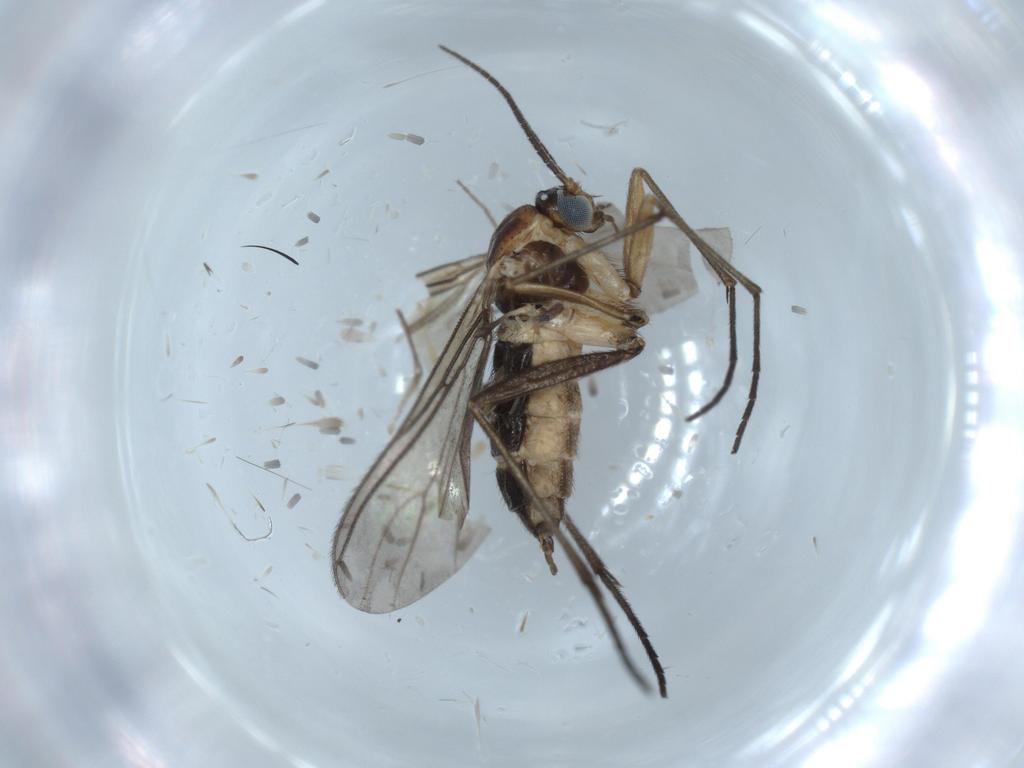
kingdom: Animalia
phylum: Arthropoda
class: Insecta
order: Diptera
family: Sciaridae
